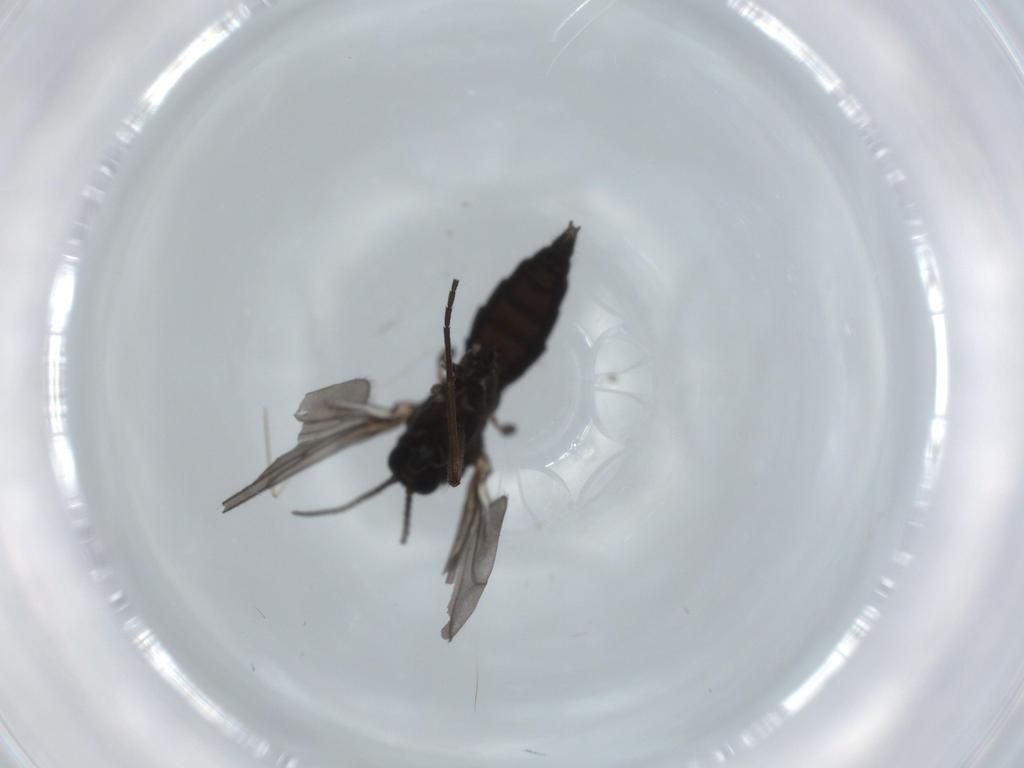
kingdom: Animalia
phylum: Arthropoda
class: Insecta
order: Diptera
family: Sciaridae
